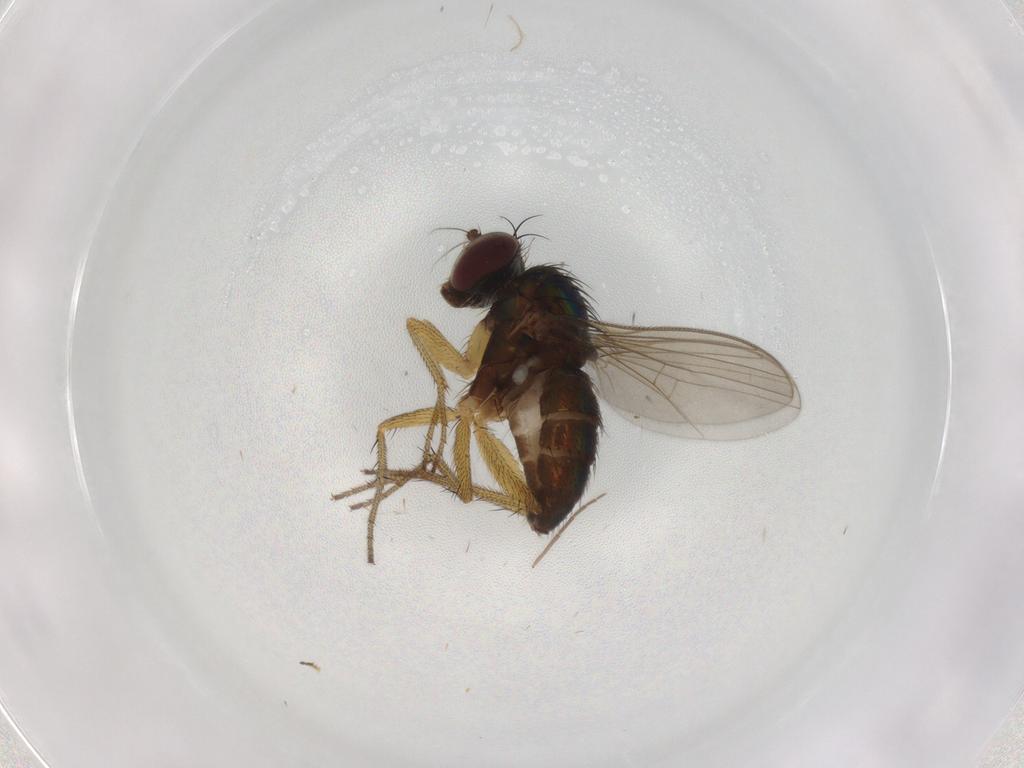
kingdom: Animalia
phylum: Arthropoda
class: Insecta
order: Diptera
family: Dolichopodidae
